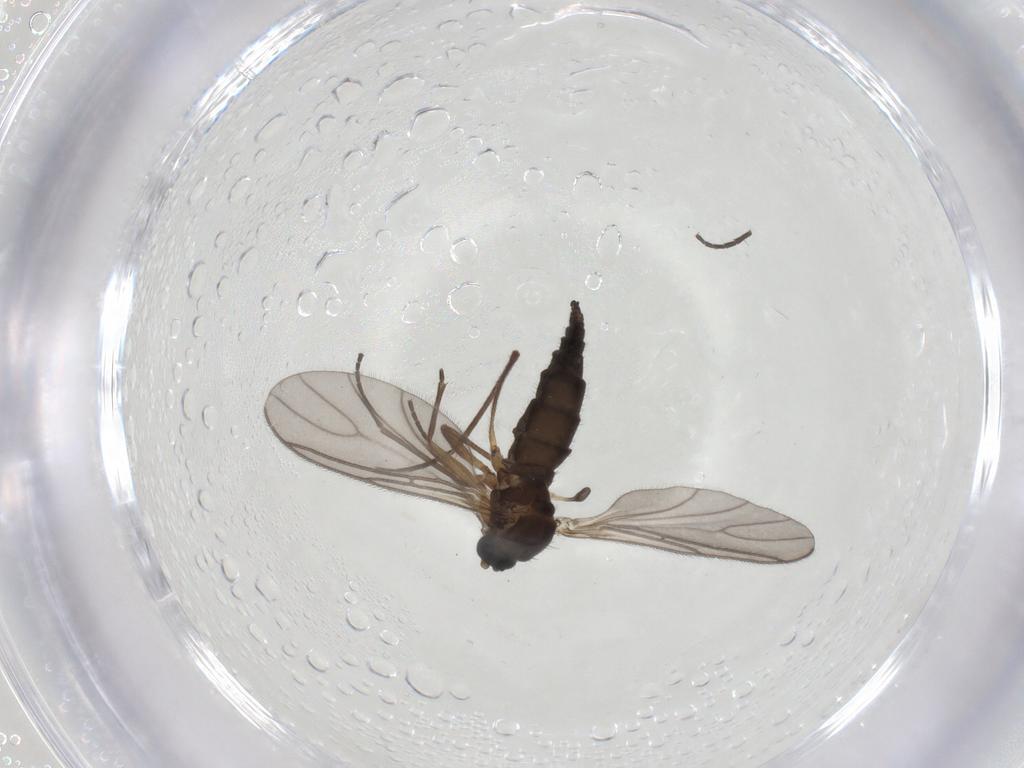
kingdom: Animalia
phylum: Arthropoda
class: Insecta
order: Diptera
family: Sciaridae
